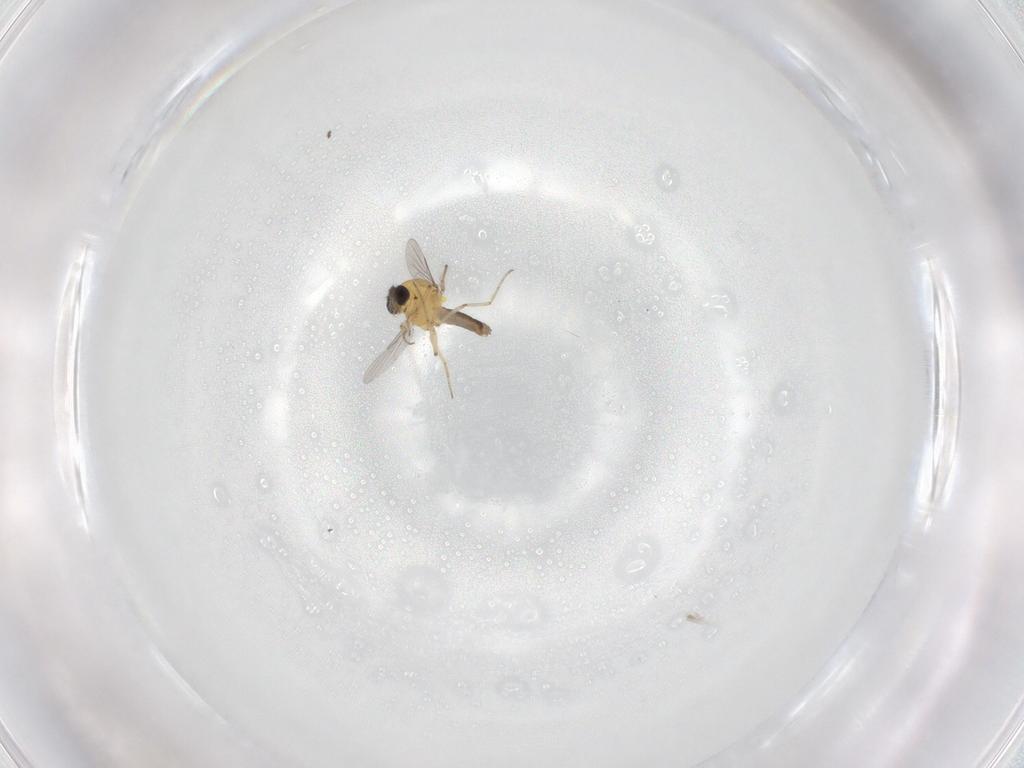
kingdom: Animalia
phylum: Arthropoda
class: Insecta
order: Diptera
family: Ceratopogonidae
